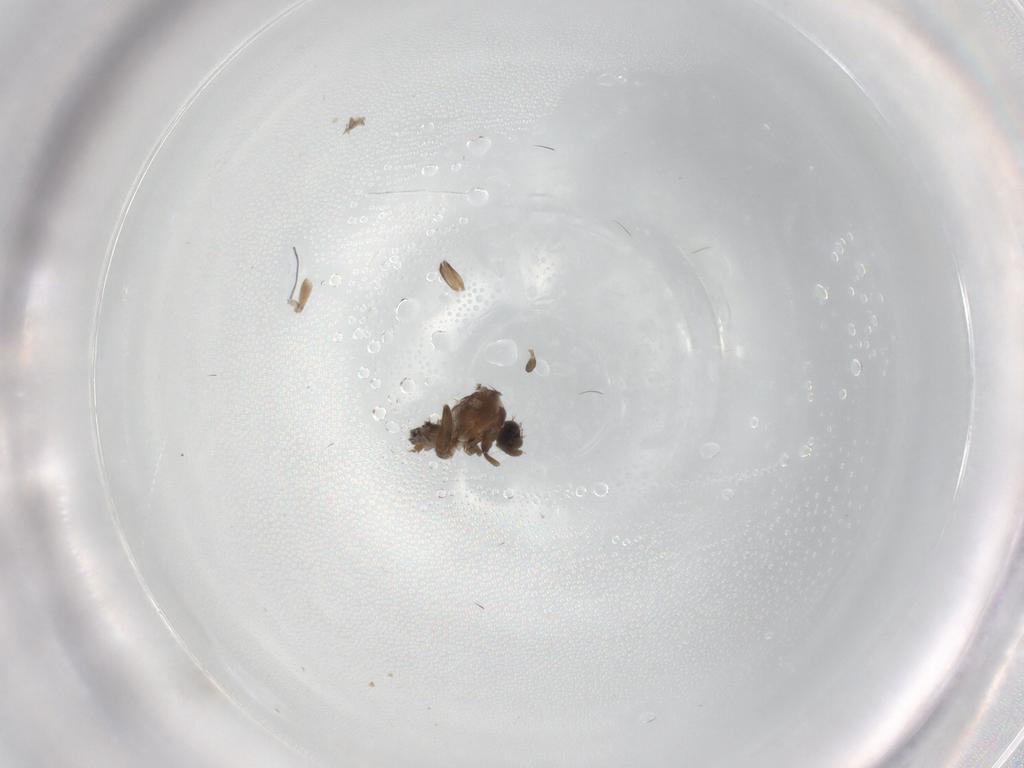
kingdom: Animalia
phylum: Arthropoda
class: Insecta
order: Diptera
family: Cecidomyiidae
